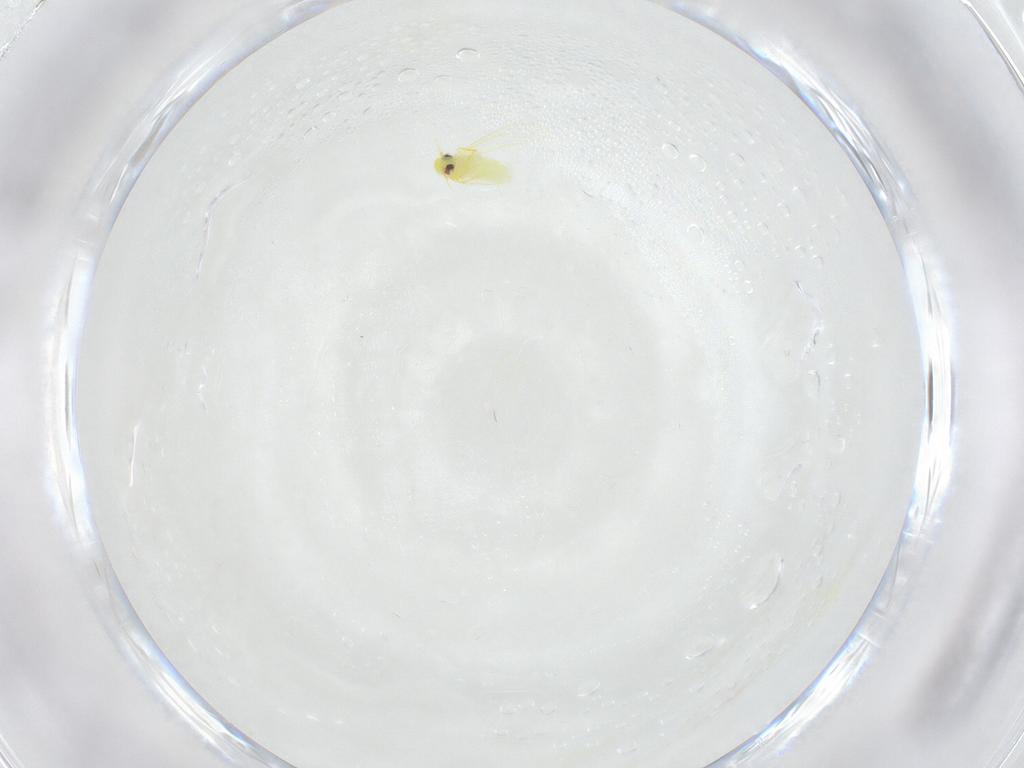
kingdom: Animalia
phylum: Arthropoda
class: Insecta
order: Hemiptera
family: Aleyrodidae
